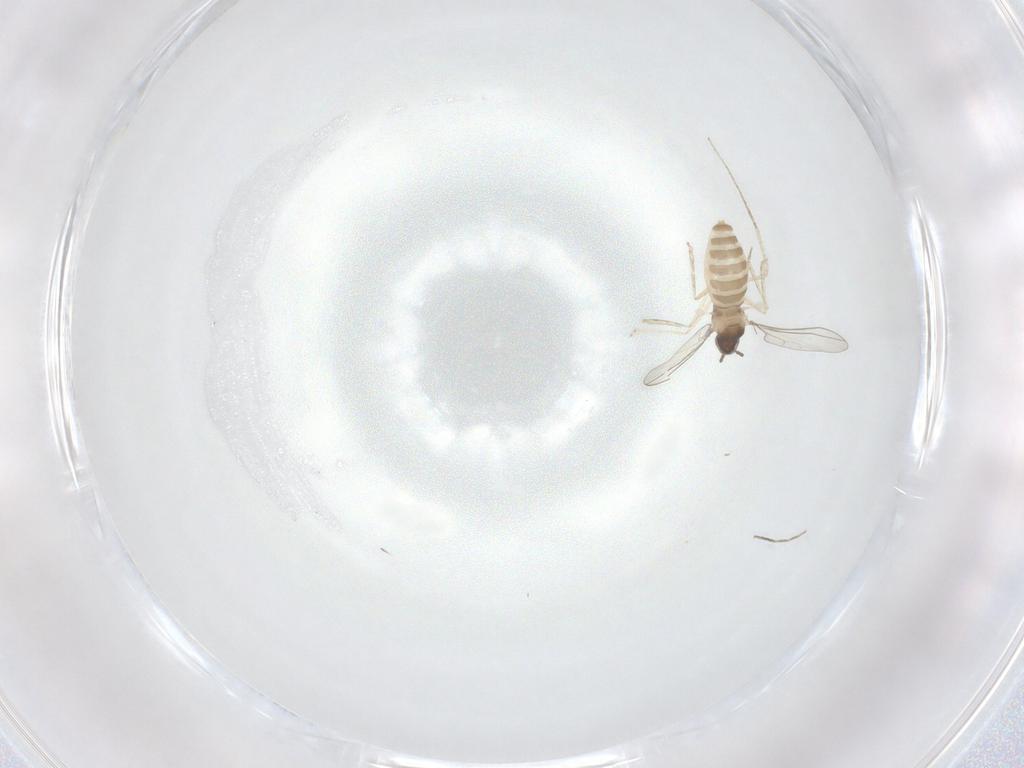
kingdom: Animalia
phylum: Arthropoda
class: Insecta
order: Diptera
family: Cecidomyiidae
